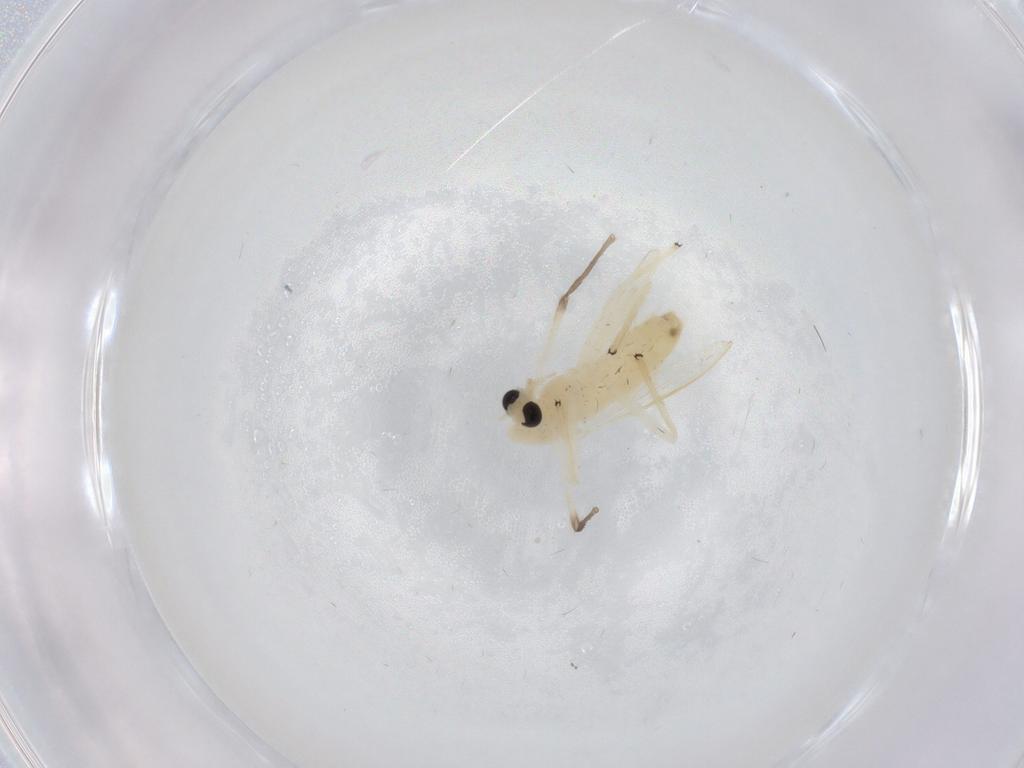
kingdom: Animalia
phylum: Arthropoda
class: Insecta
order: Diptera
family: Chironomidae
